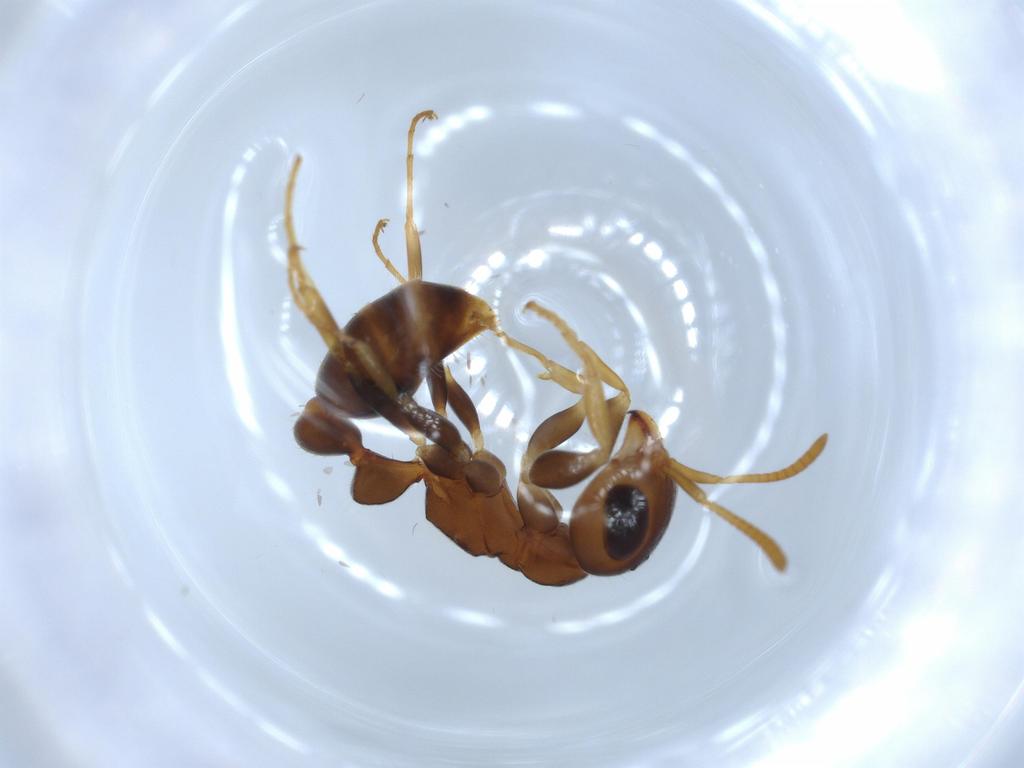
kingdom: Animalia
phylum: Arthropoda
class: Insecta
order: Hymenoptera
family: Formicidae
